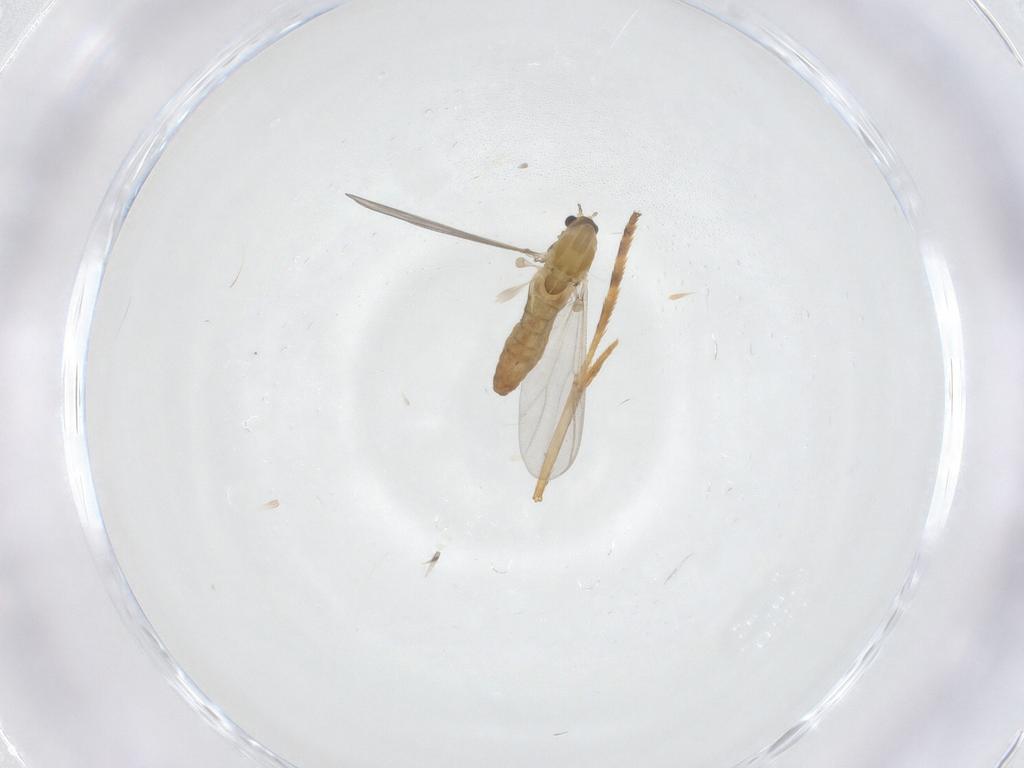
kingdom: Animalia
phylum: Arthropoda
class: Insecta
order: Diptera
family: Chironomidae
